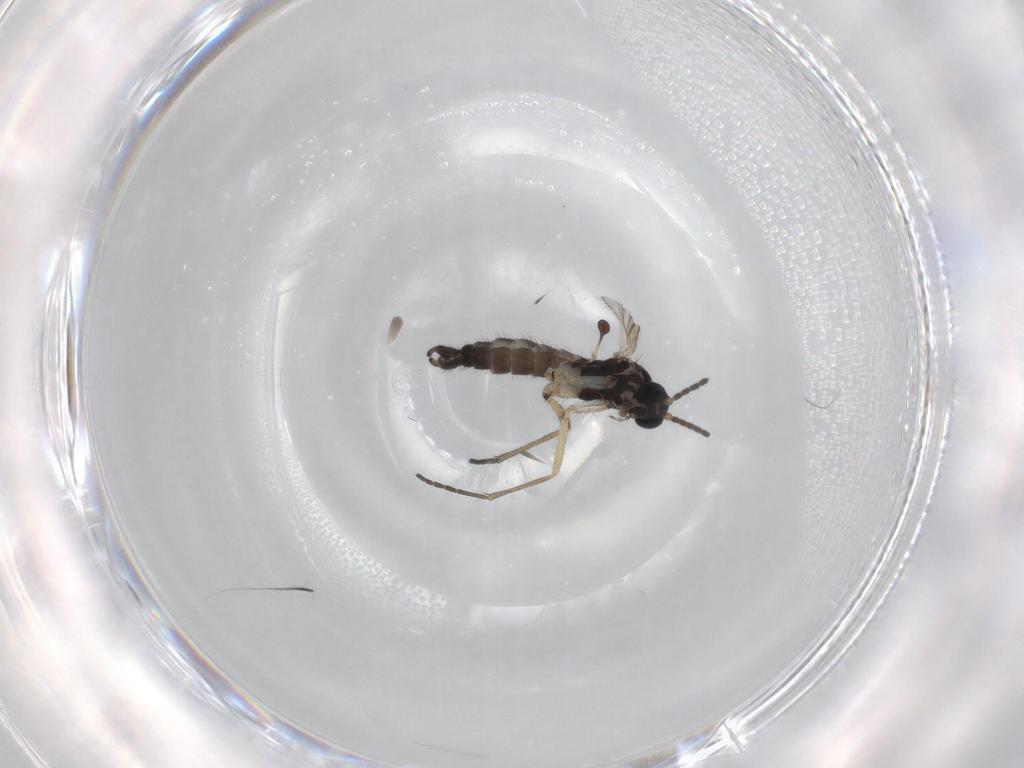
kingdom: Animalia
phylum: Arthropoda
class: Insecta
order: Diptera
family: Sciaridae
